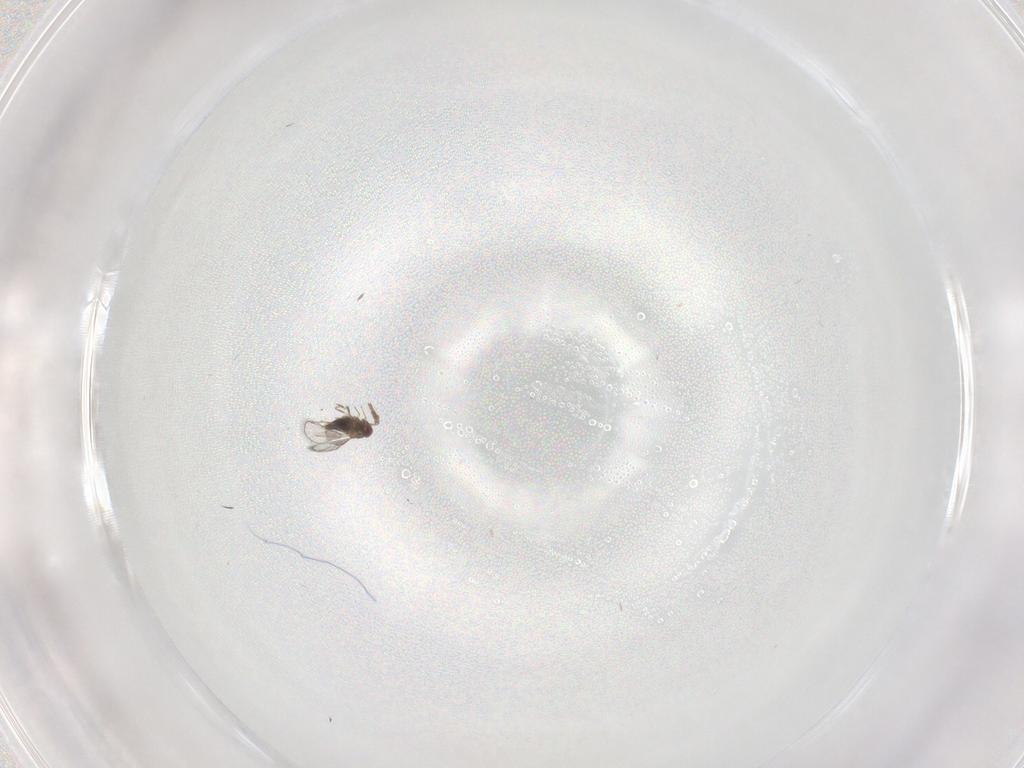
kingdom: Animalia
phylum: Arthropoda
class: Insecta
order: Hymenoptera
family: Trichogrammatidae
